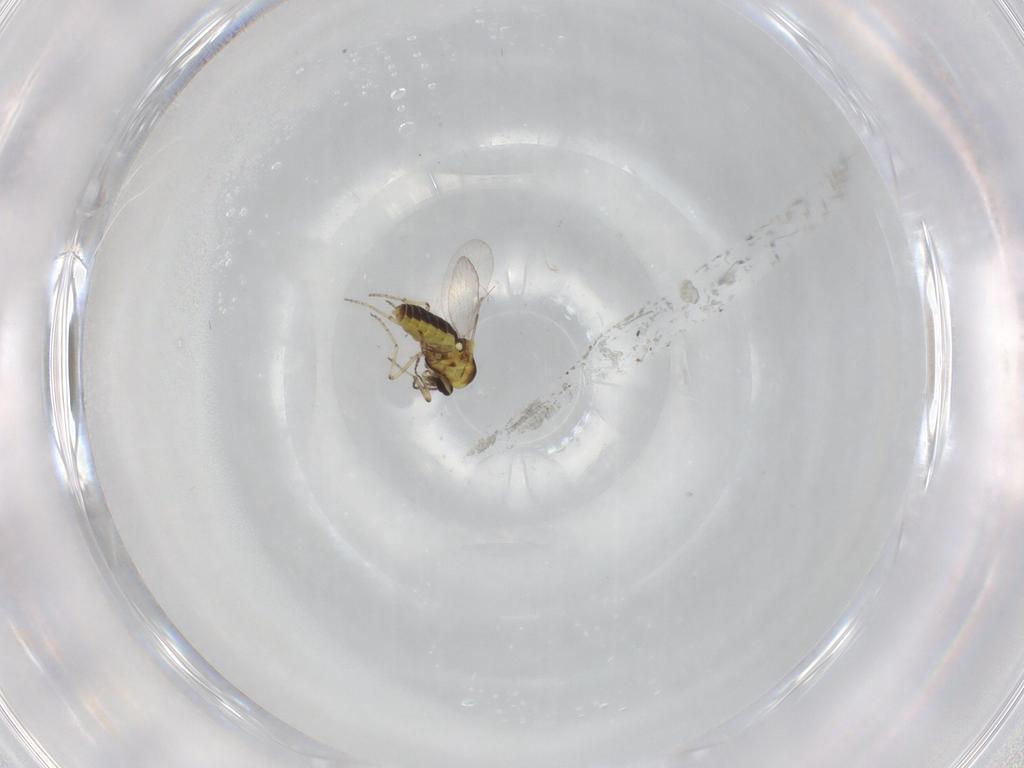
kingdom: Animalia
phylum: Arthropoda
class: Insecta
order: Diptera
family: Ceratopogonidae
